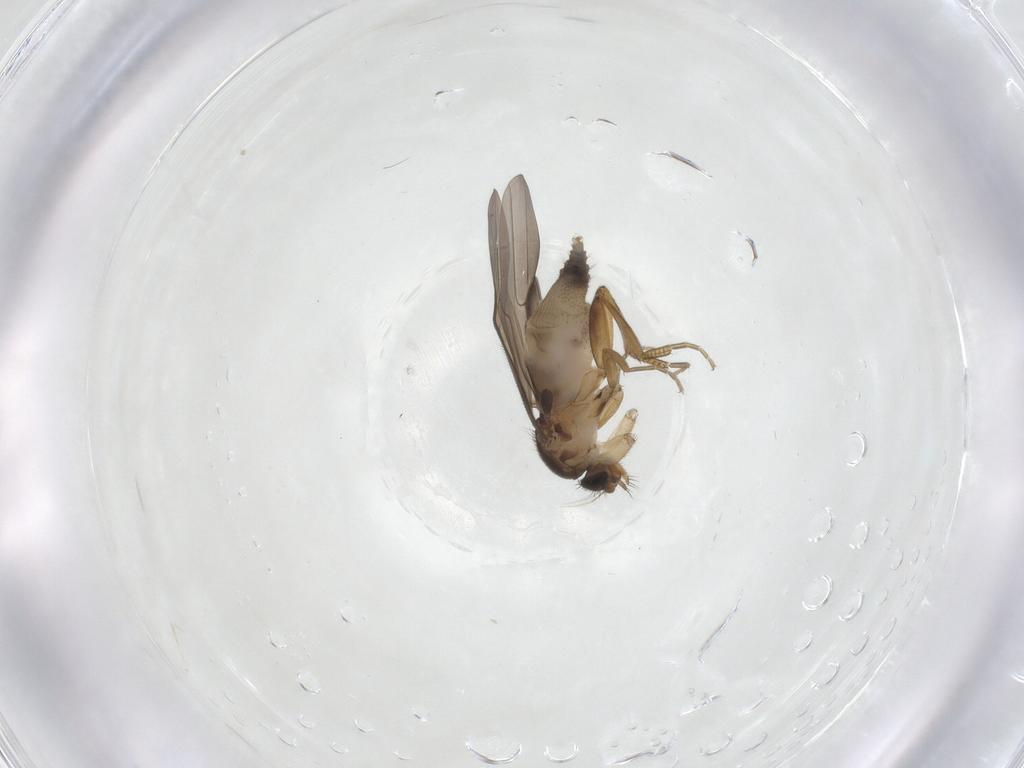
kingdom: Animalia
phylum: Arthropoda
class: Insecta
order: Diptera
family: Phoridae
